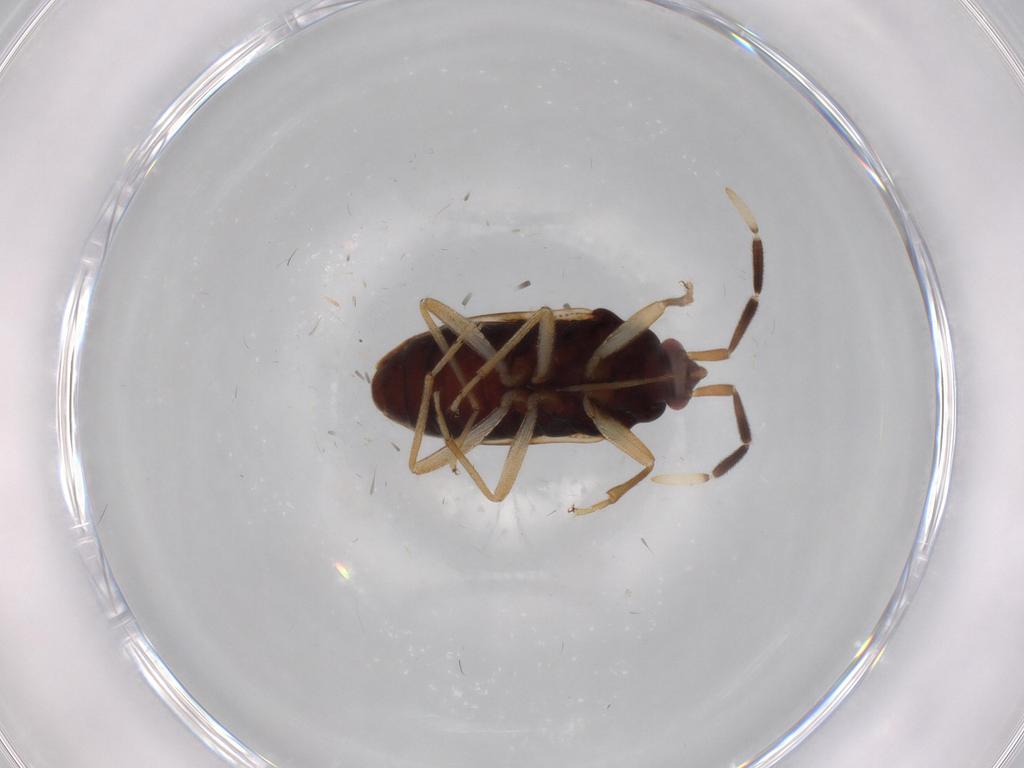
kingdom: Animalia
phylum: Arthropoda
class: Insecta
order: Hemiptera
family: Rhyparochromidae
